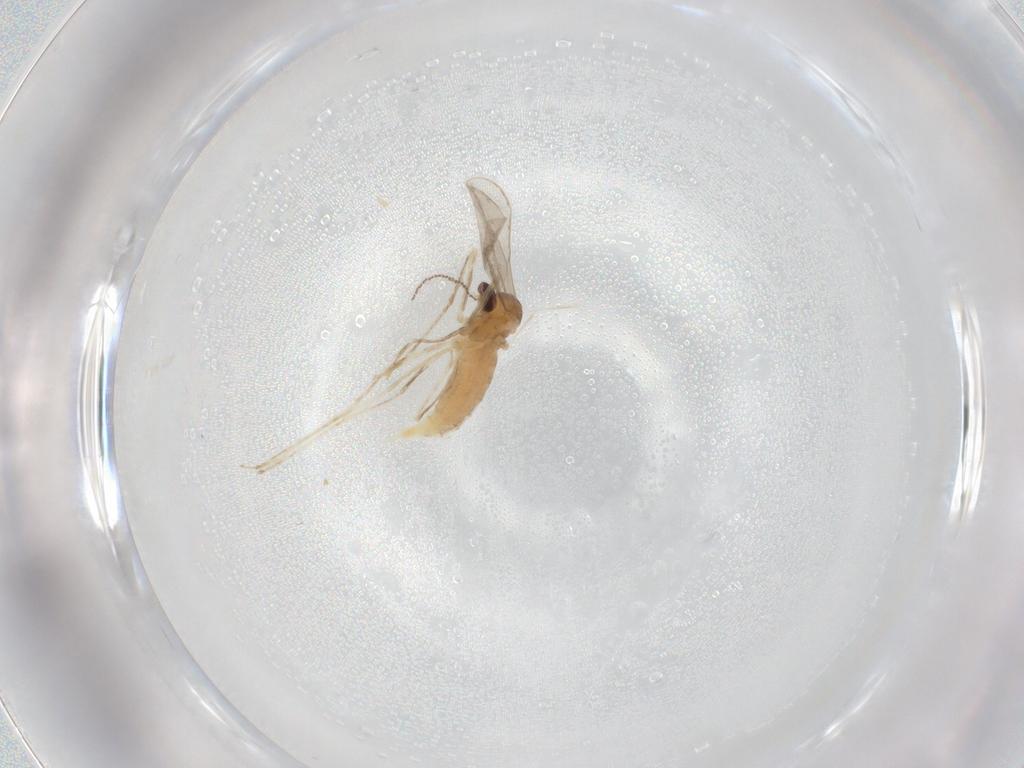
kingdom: Animalia
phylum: Arthropoda
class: Insecta
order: Diptera
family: Cecidomyiidae
